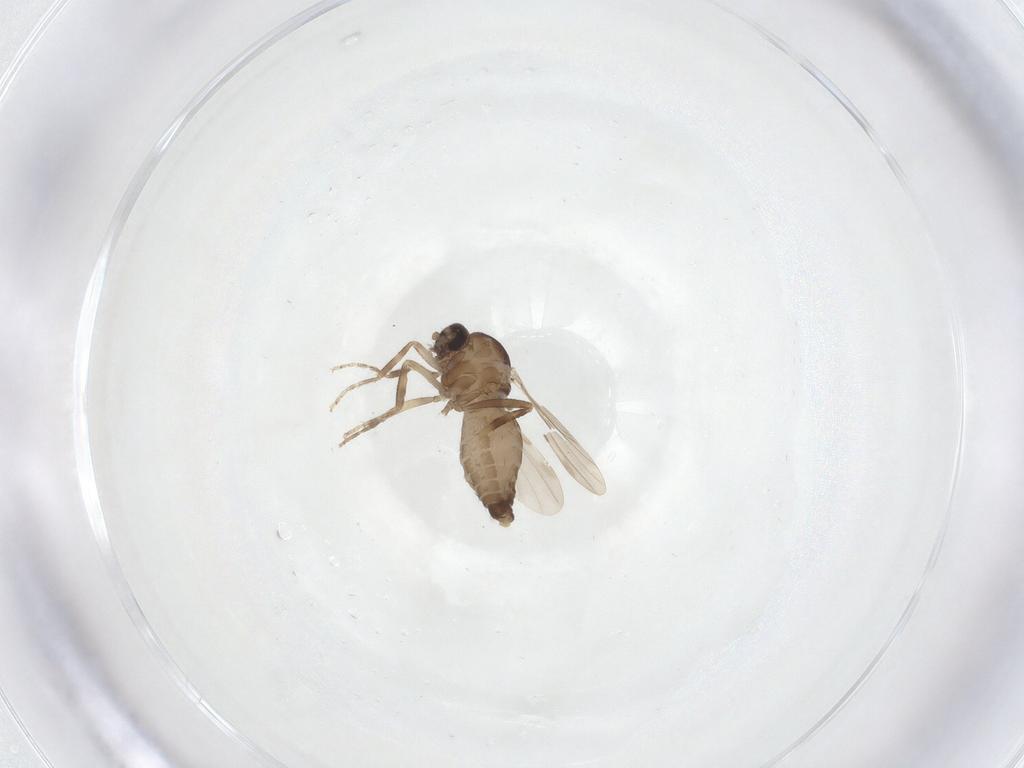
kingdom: Animalia
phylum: Arthropoda
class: Insecta
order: Diptera
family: Ceratopogonidae
